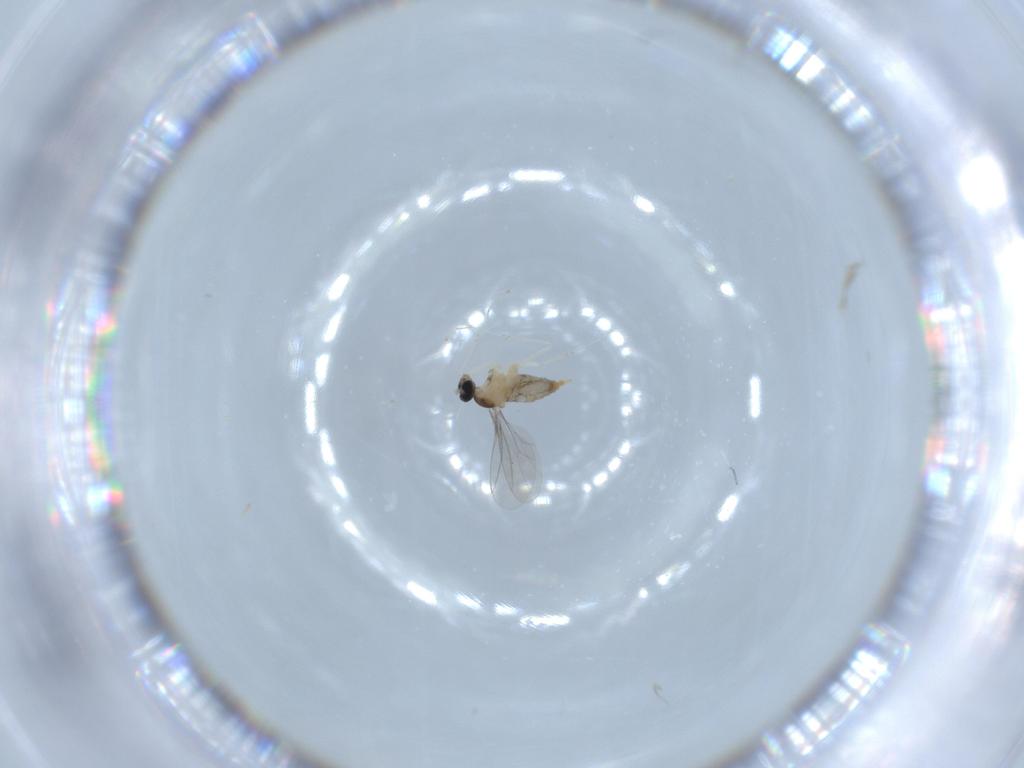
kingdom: Animalia
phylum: Arthropoda
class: Insecta
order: Diptera
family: Cecidomyiidae
